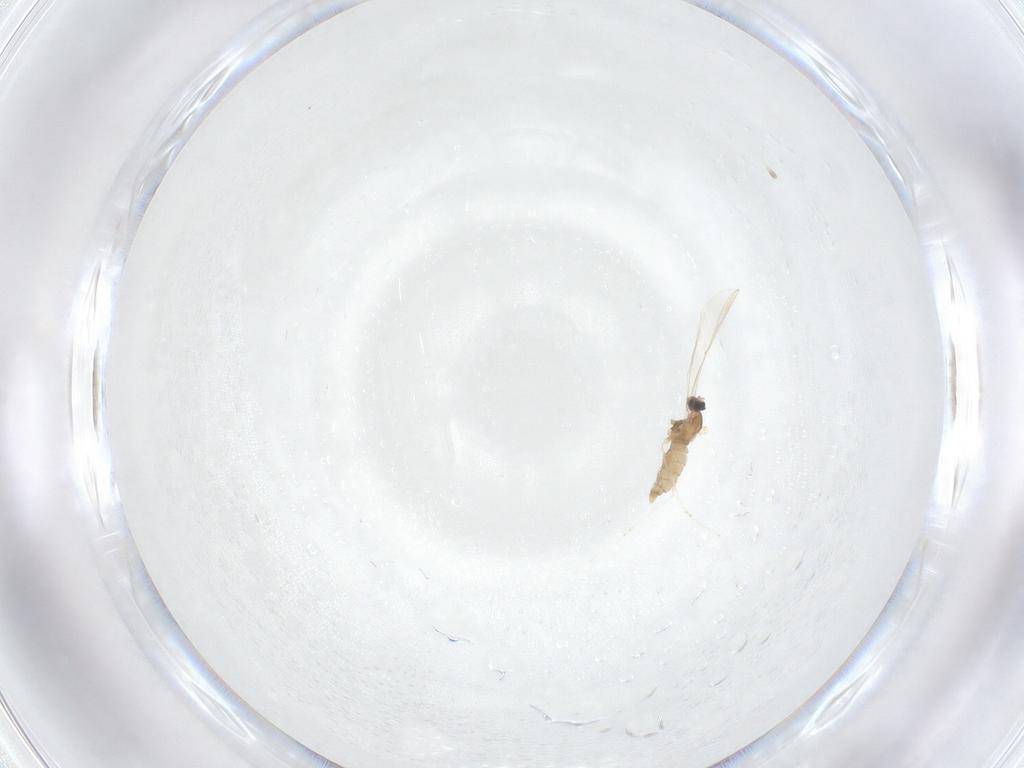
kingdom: Animalia
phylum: Arthropoda
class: Insecta
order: Diptera
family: Cecidomyiidae
